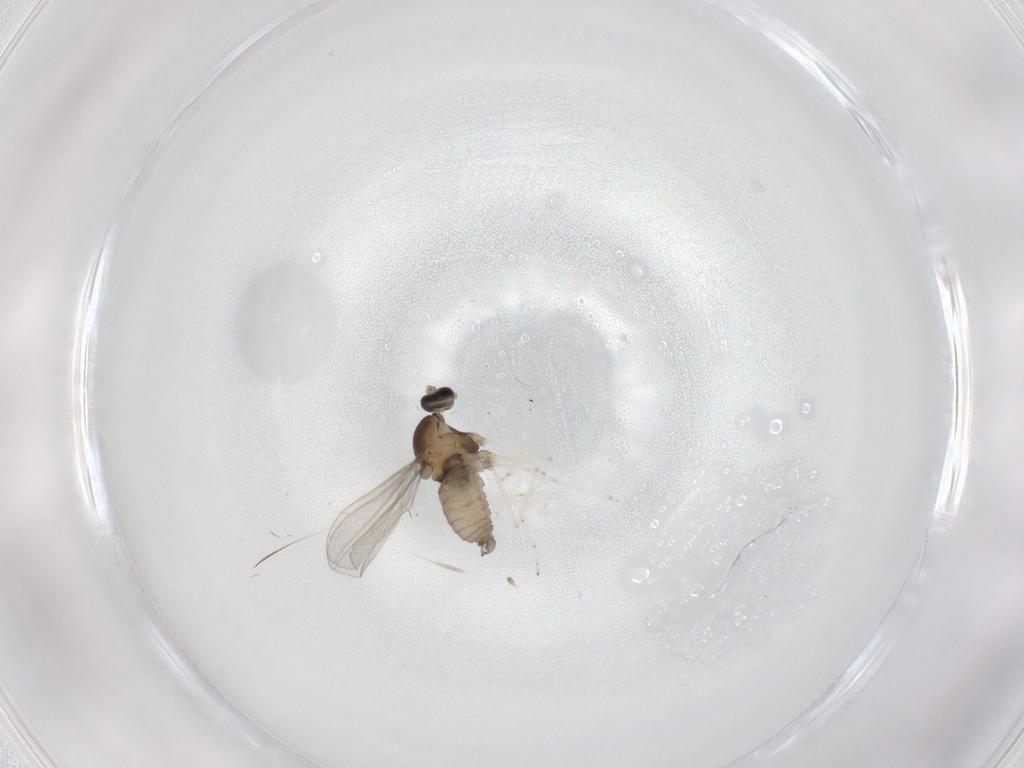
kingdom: Animalia
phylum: Arthropoda
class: Insecta
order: Diptera
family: Cecidomyiidae
